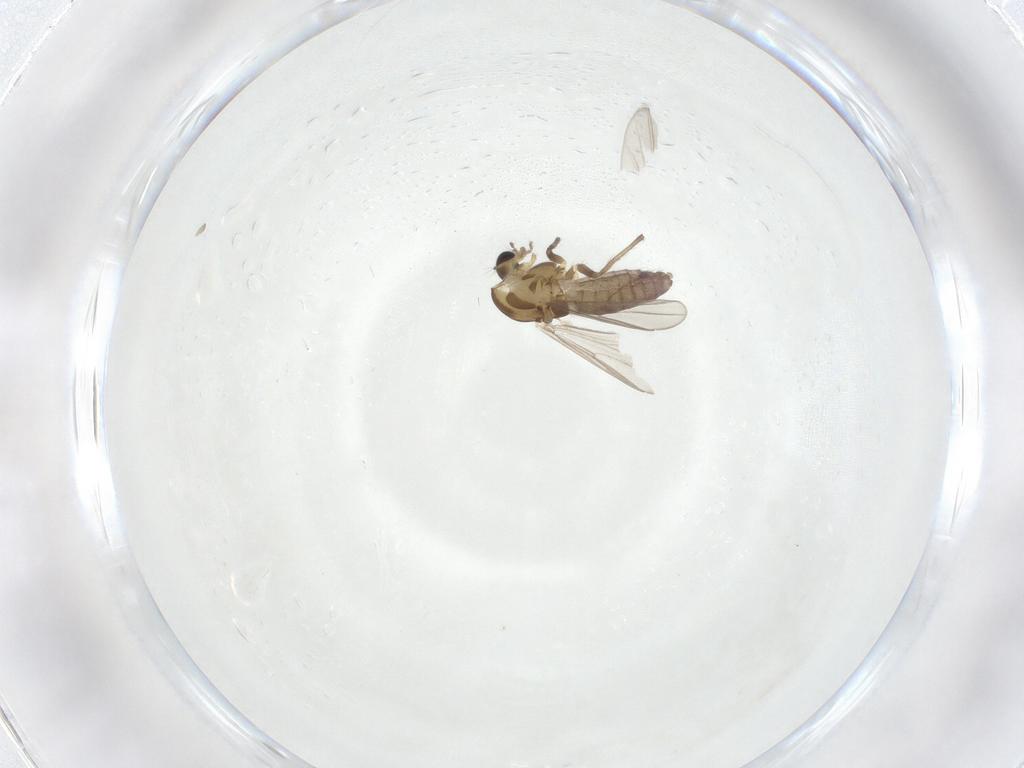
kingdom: Animalia
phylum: Arthropoda
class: Insecta
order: Diptera
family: Chironomidae
